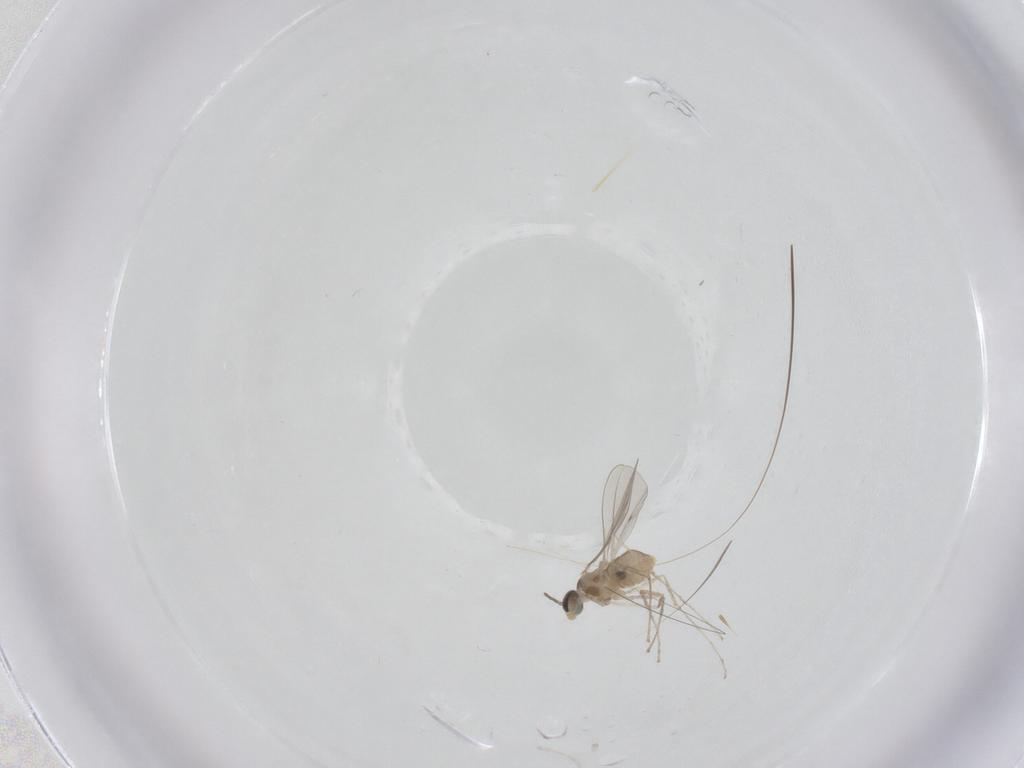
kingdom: Animalia
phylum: Arthropoda
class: Insecta
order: Diptera
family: Cecidomyiidae
